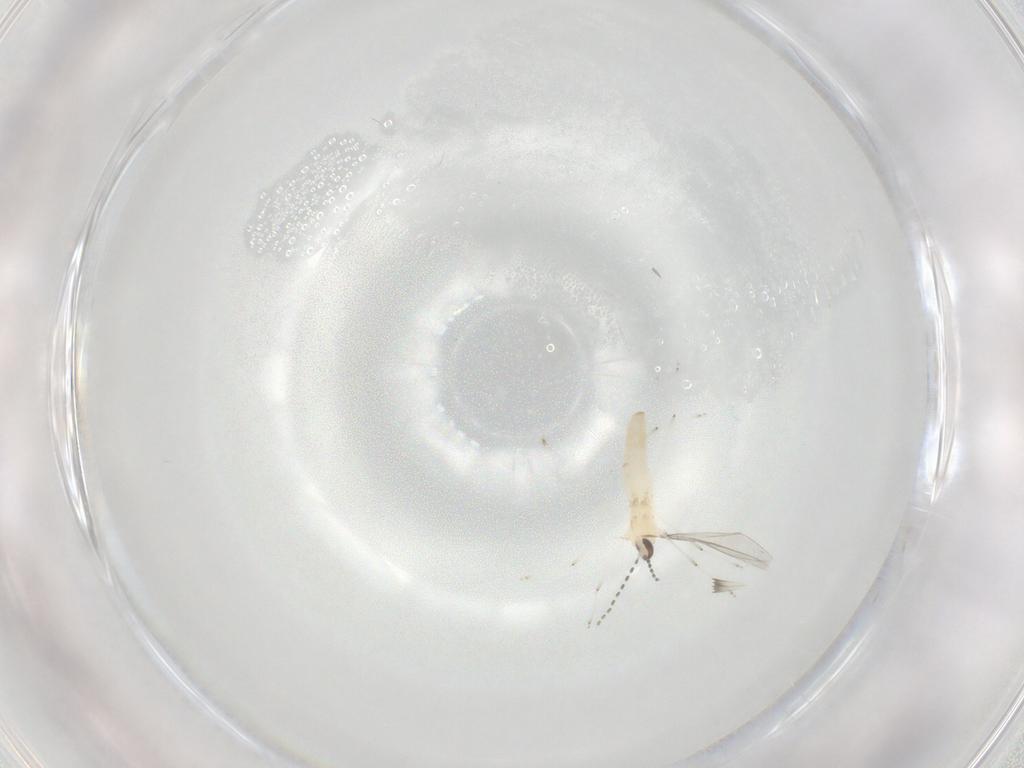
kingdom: Animalia
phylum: Arthropoda
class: Insecta
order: Diptera
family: Cecidomyiidae
